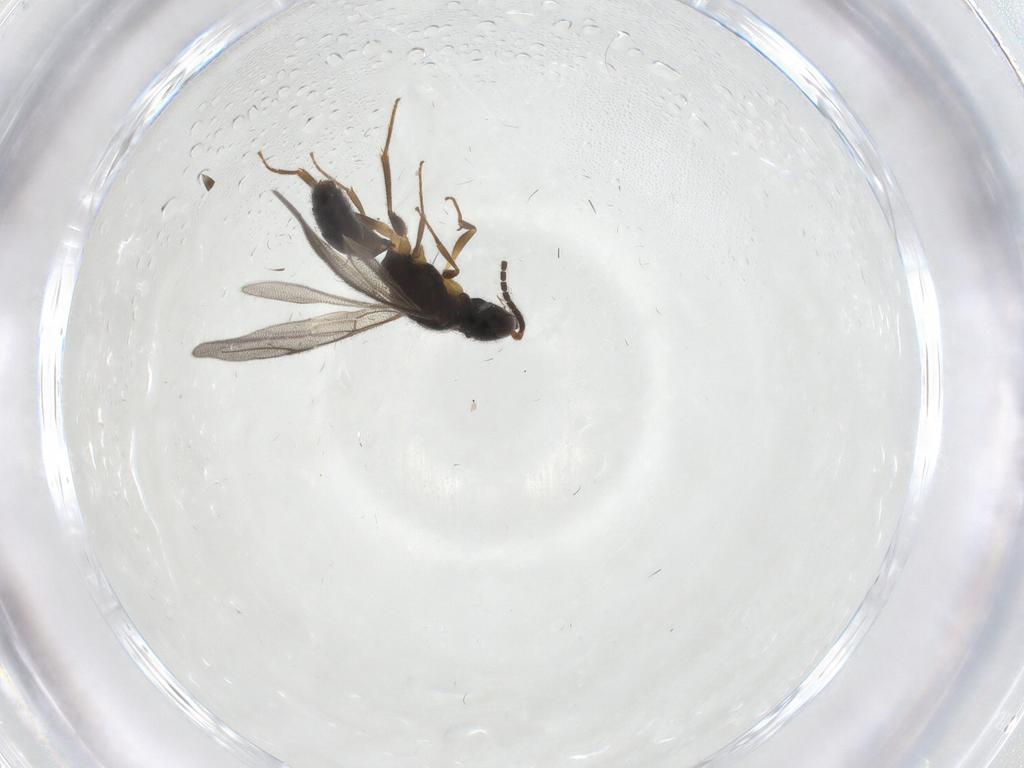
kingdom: Animalia
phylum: Arthropoda
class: Insecta
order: Hymenoptera
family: Bethylidae
